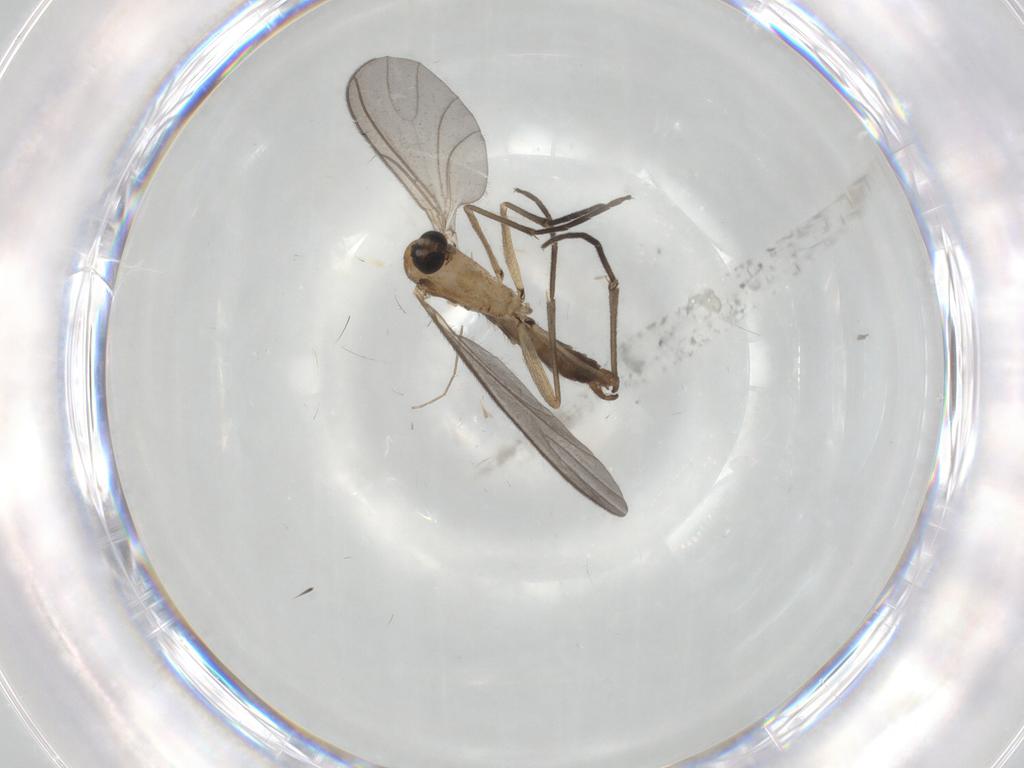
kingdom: Animalia
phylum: Arthropoda
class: Insecta
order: Diptera
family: Sciaridae
